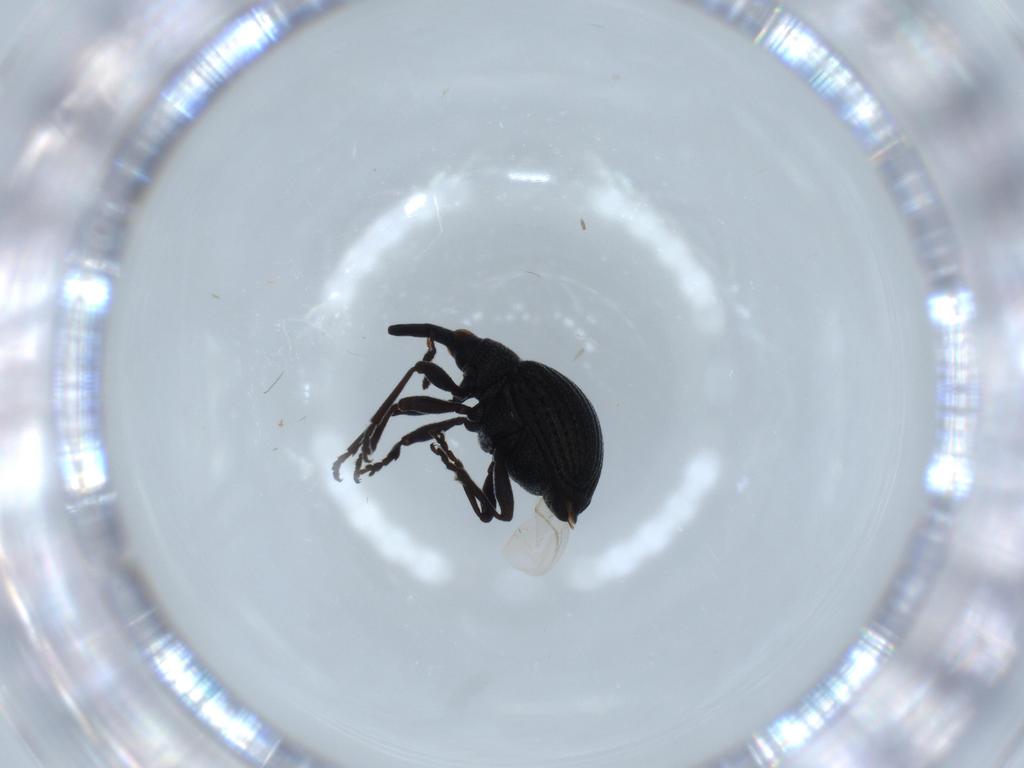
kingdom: Animalia
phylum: Arthropoda
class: Insecta
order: Coleoptera
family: Brentidae
